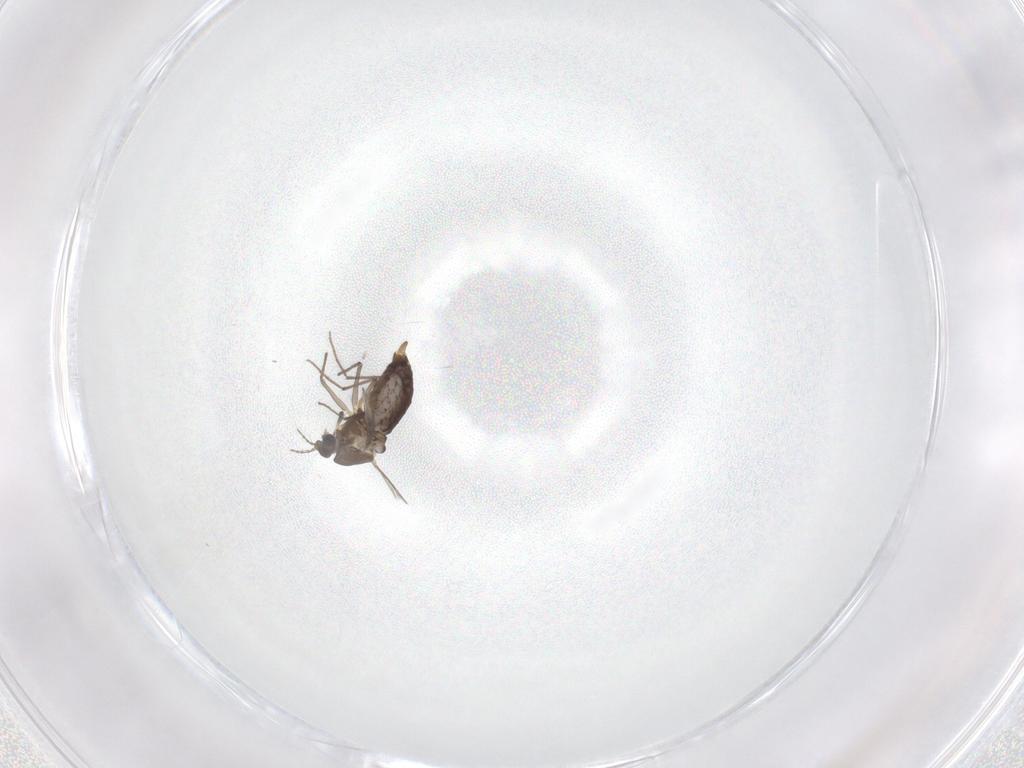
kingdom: Animalia
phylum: Arthropoda
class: Insecta
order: Diptera
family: Chironomidae
